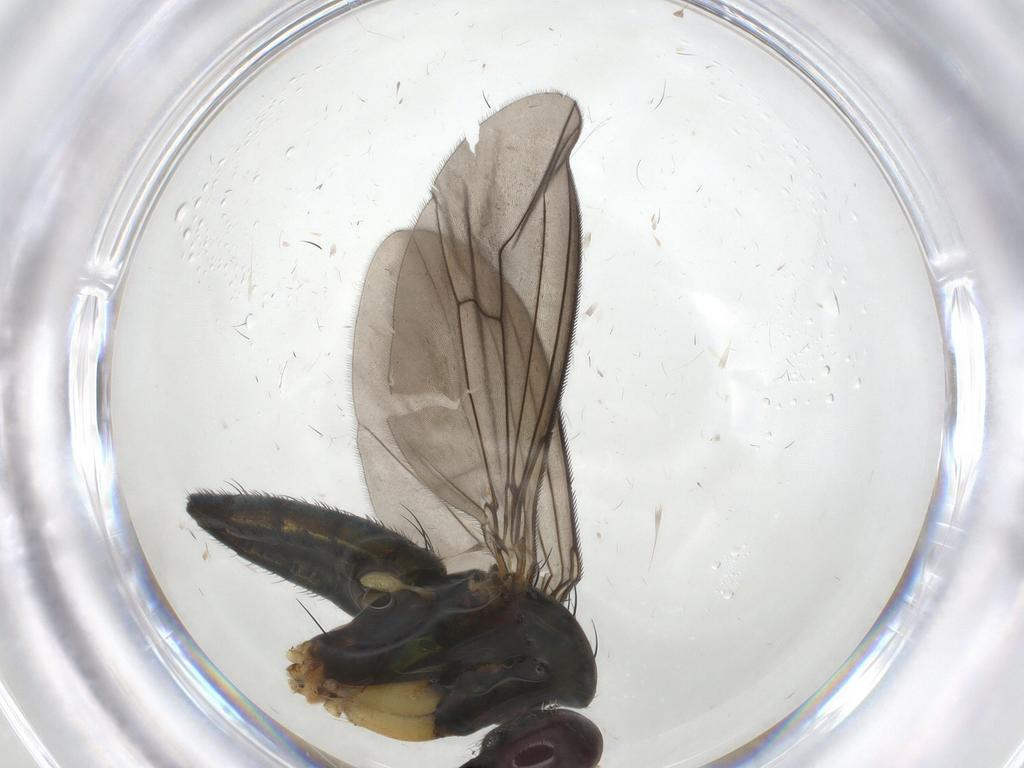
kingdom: Animalia
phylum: Arthropoda
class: Insecta
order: Diptera
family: Dolichopodidae
